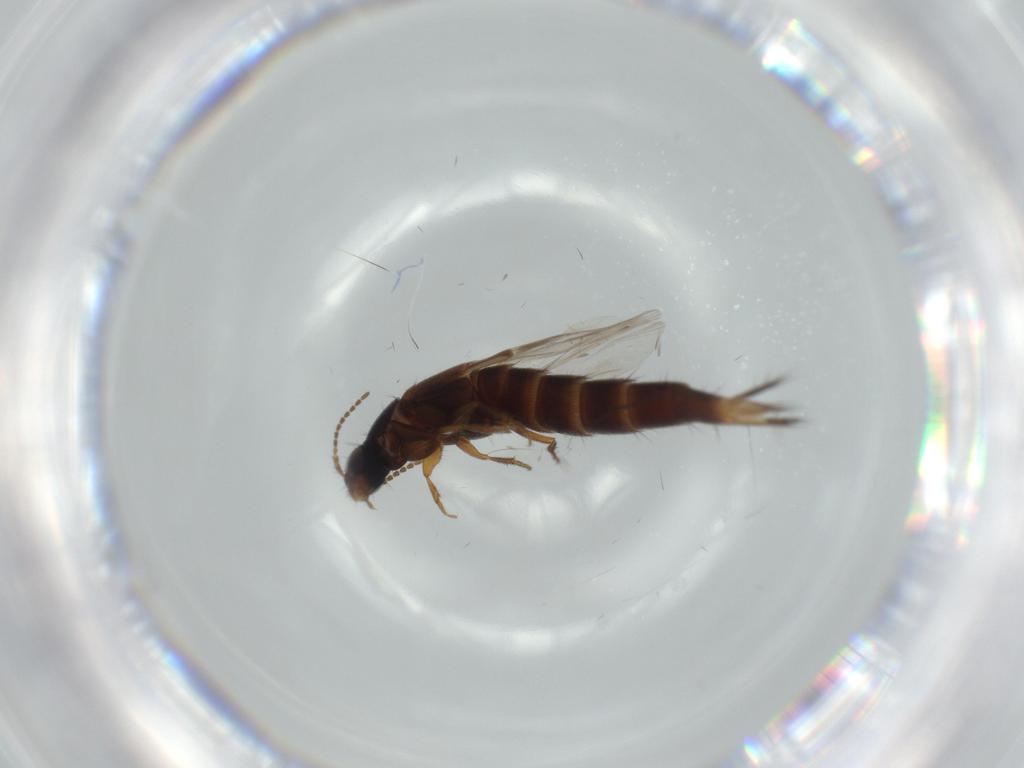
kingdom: Animalia
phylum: Arthropoda
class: Insecta
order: Coleoptera
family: Staphylinidae
